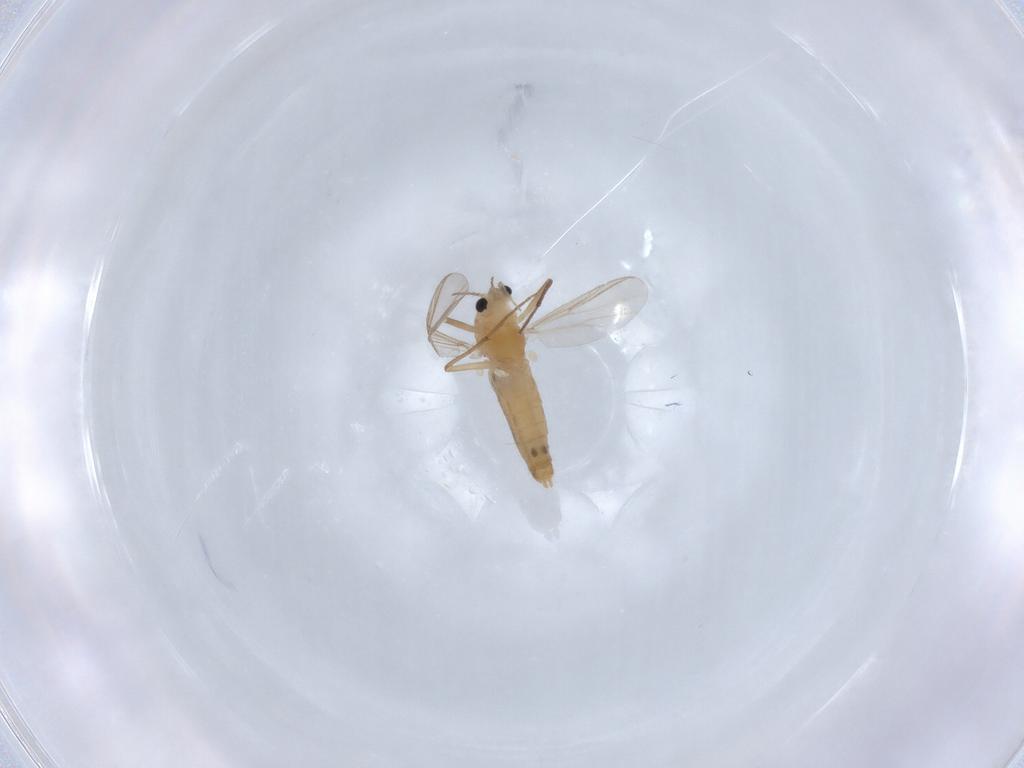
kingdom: Animalia
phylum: Arthropoda
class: Insecta
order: Diptera
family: Chironomidae
